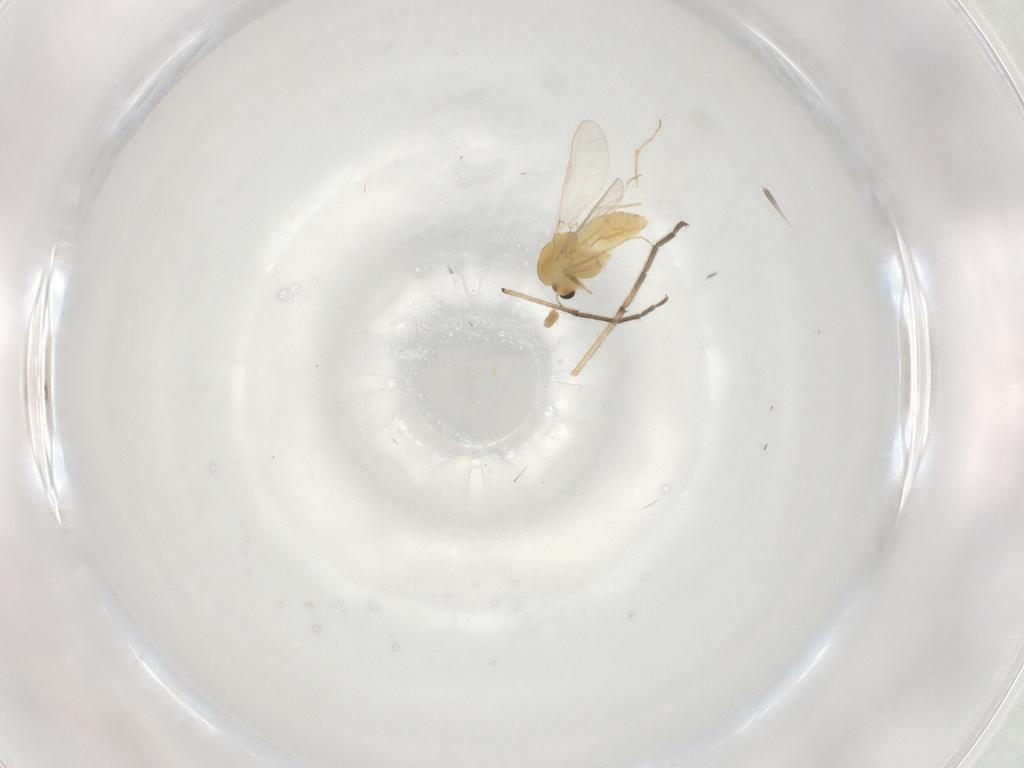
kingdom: Animalia
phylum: Arthropoda
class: Insecta
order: Diptera
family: Chironomidae
